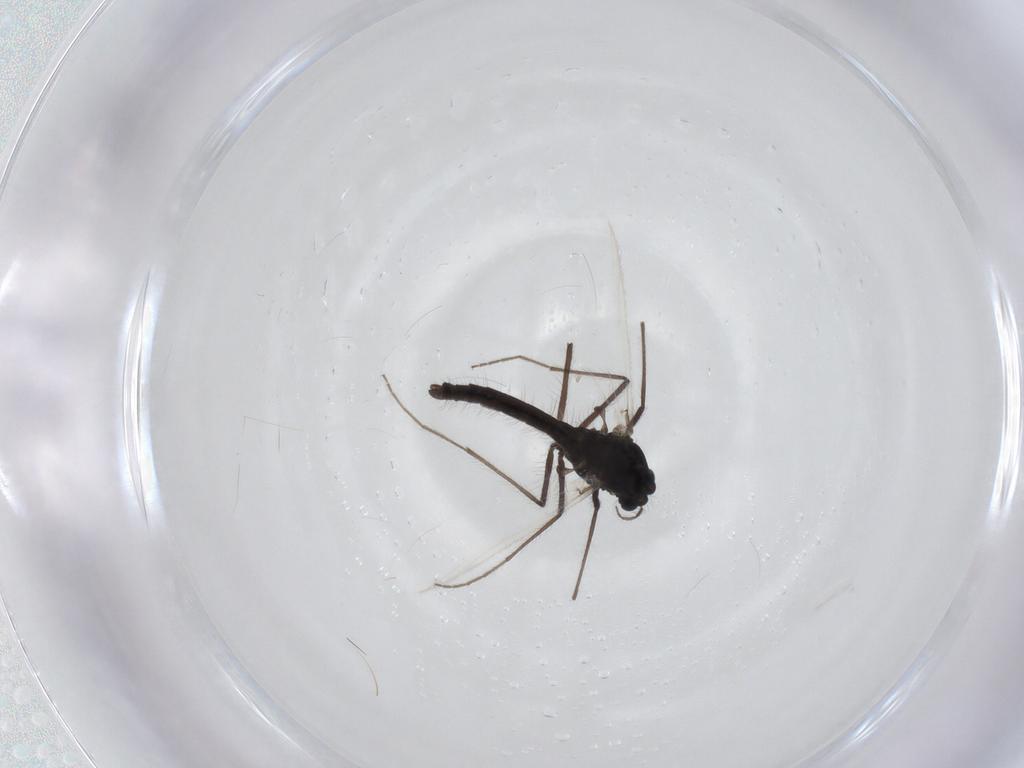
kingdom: Animalia
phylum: Arthropoda
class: Insecta
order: Diptera
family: Chironomidae
